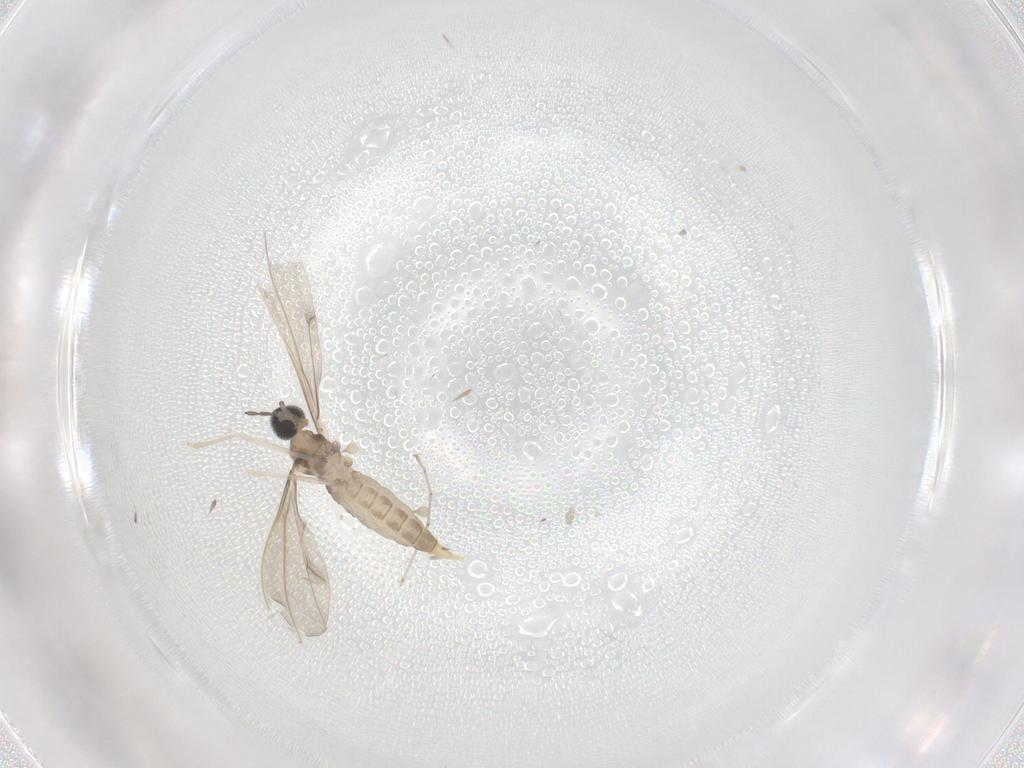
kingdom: Animalia
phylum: Arthropoda
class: Insecta
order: Diptera
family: Cecidomyiidae
